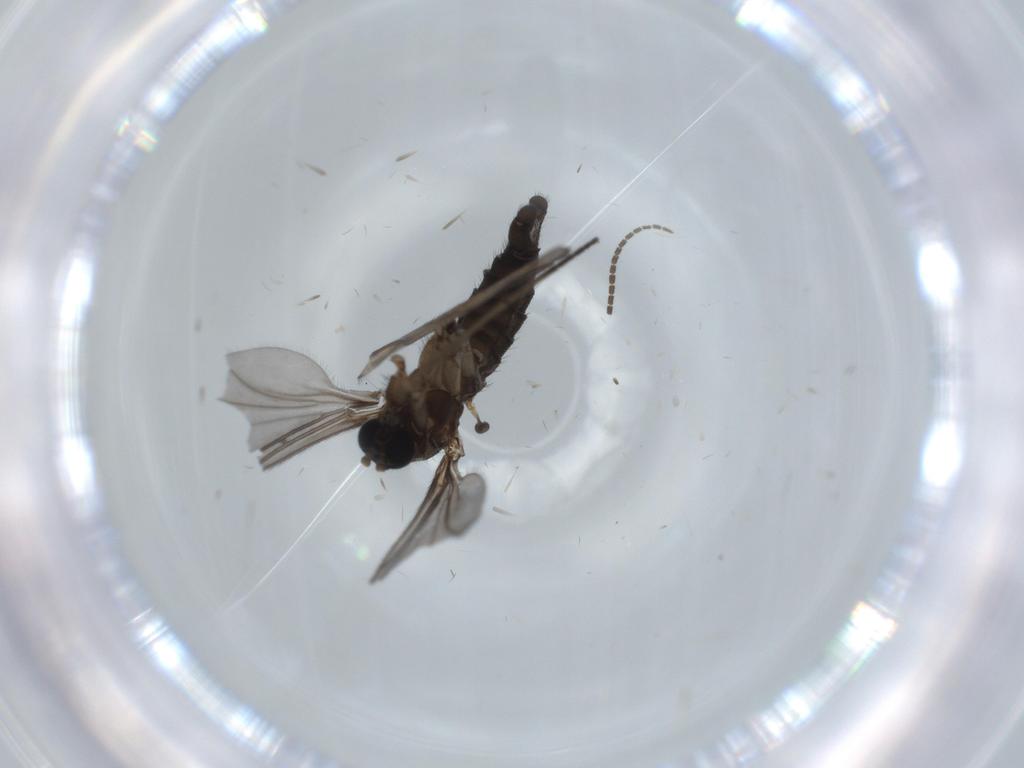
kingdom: Animalia
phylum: Arthropoda
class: Insecta
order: Diptera
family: Sciaridae
